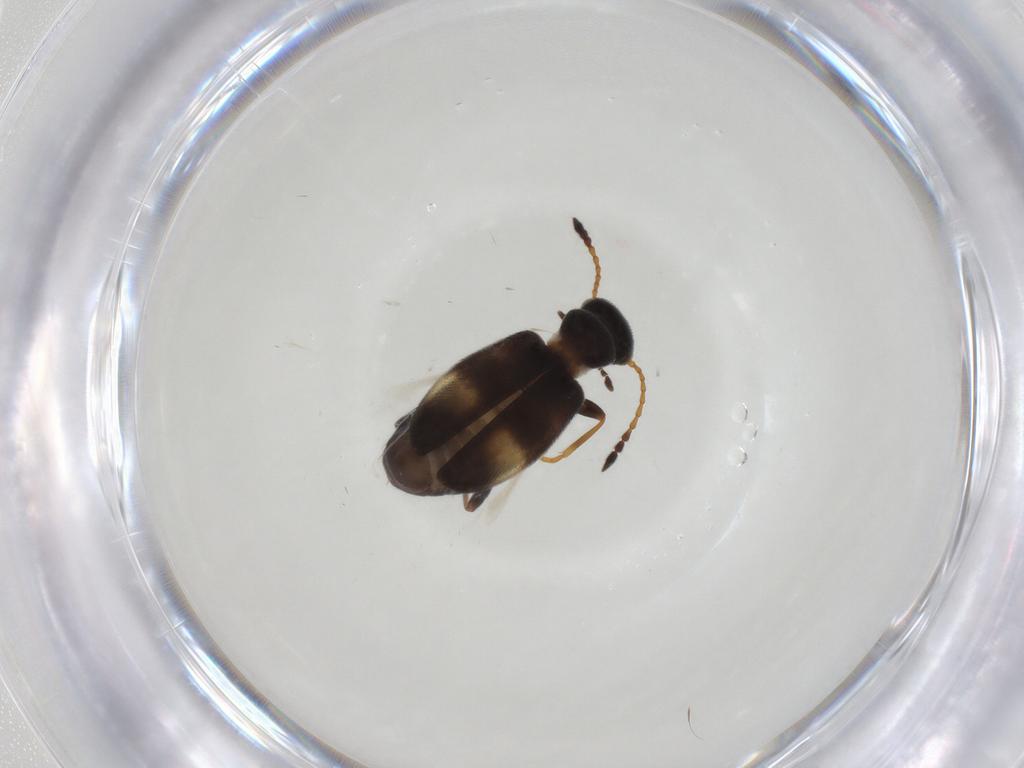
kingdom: Animalia
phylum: Arthropoda
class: Insecta
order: Coleoptera
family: Anthicidae
